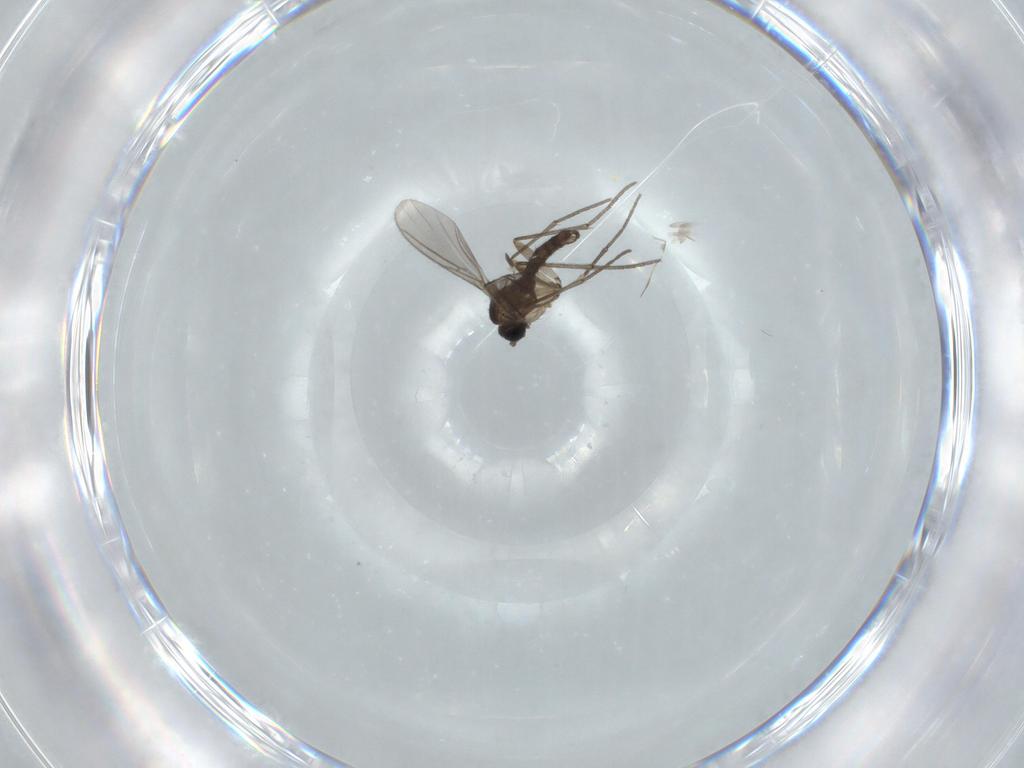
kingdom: Animalia
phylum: Arthropoda
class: Insecta
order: Diptera
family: Sciaridae
